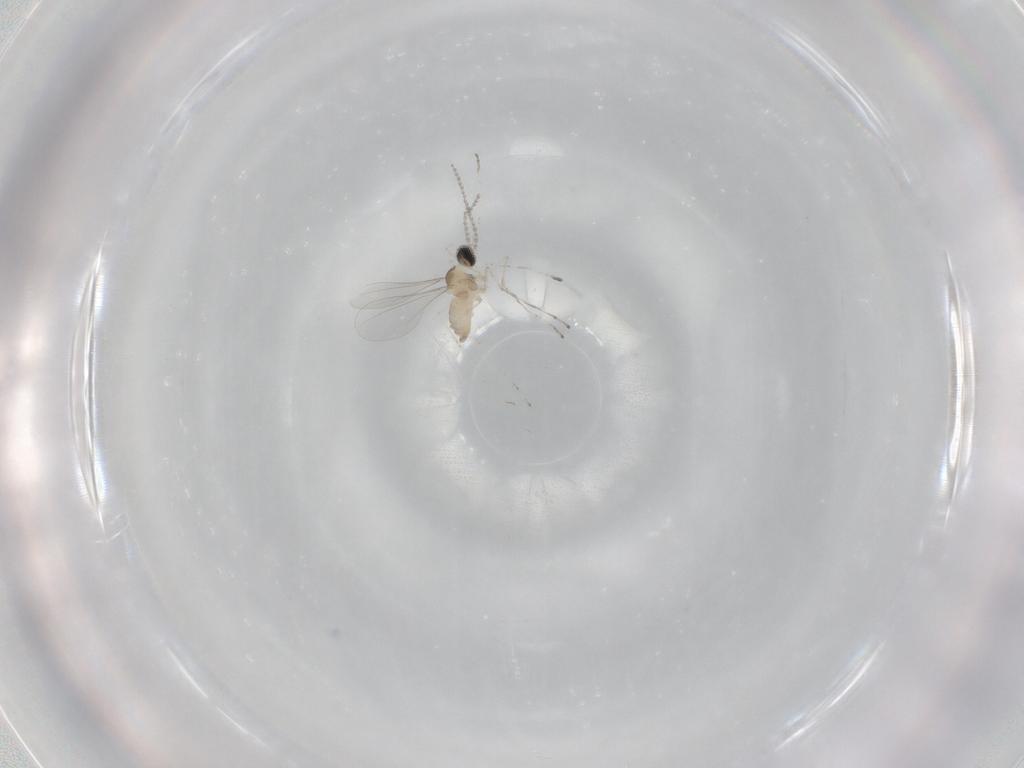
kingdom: Animalia
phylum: Arthropoda
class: Insecta
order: Diptera
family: Cecidomyiidae
